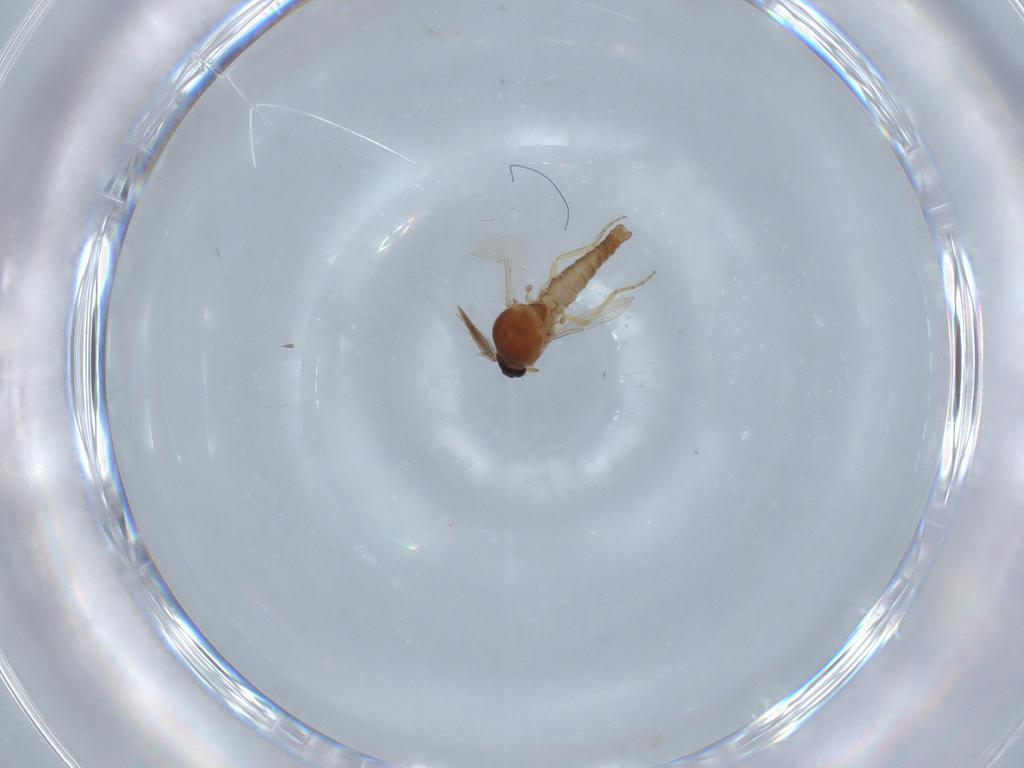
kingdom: Animalia
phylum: Arthropoda
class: Insecta
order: Diptera
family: Ceratopogonidae
